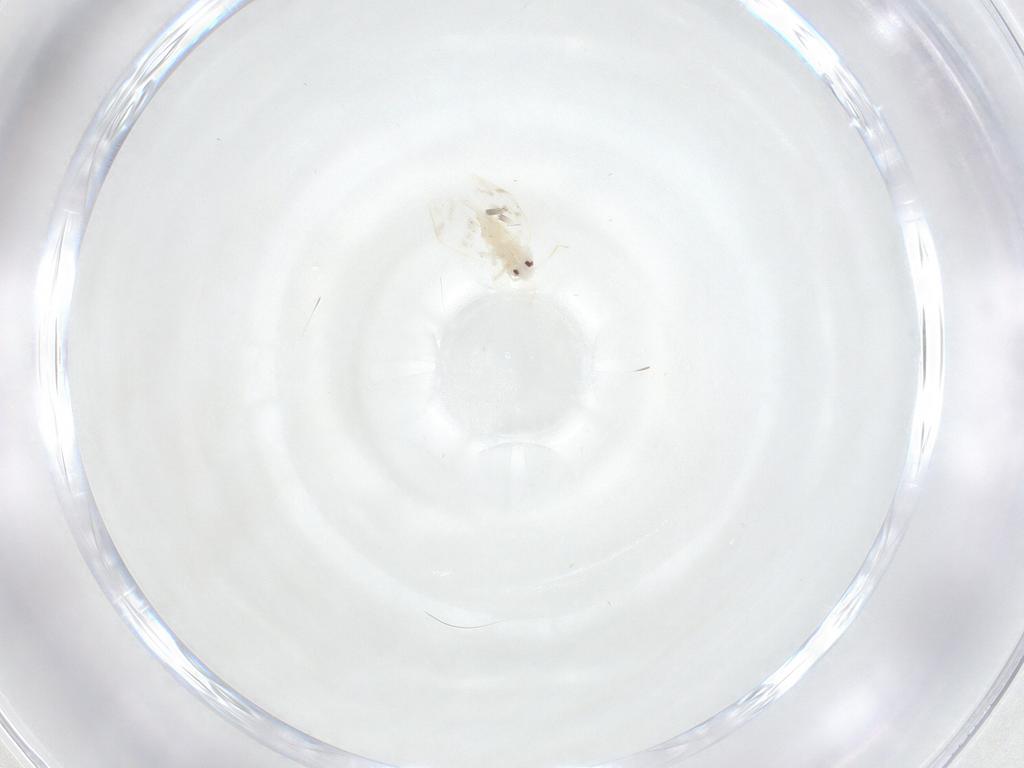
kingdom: Animalia
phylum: Arthropoda
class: Insecta
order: Hemiptera
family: Aleyrodidae
